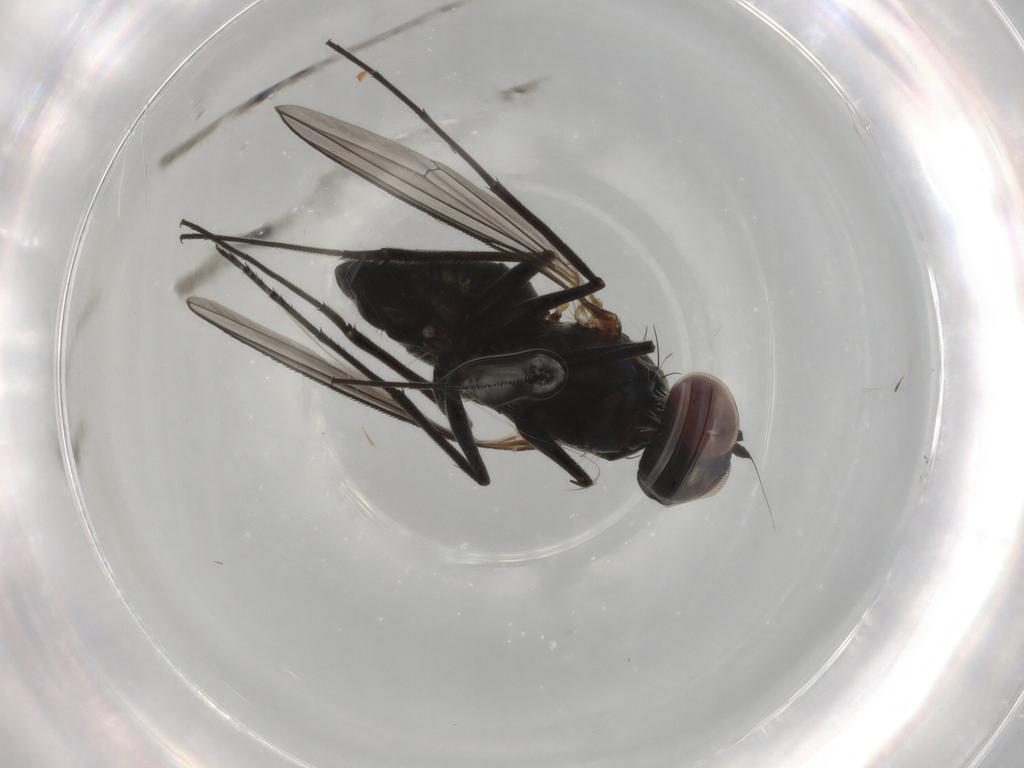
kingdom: Animalia
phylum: Arthropoda
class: Insecta
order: Diptera
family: Dolichopodidae
